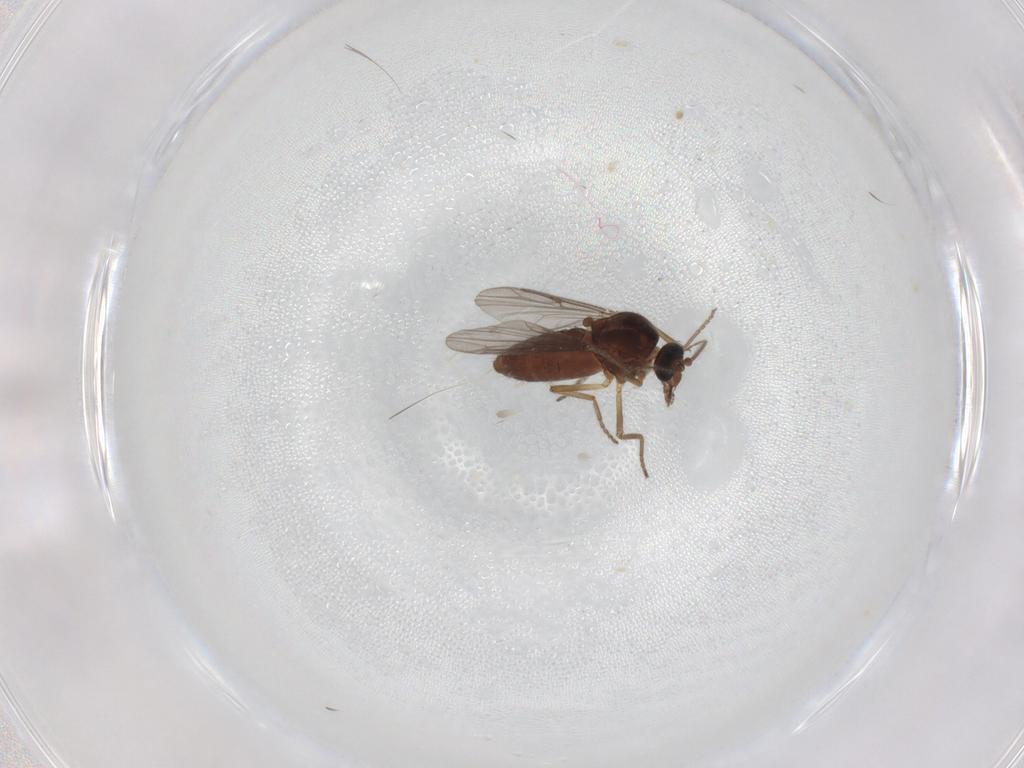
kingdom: Animalia
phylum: Arthropoda
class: Insecta
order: Diptera
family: Ceratopogonidae
